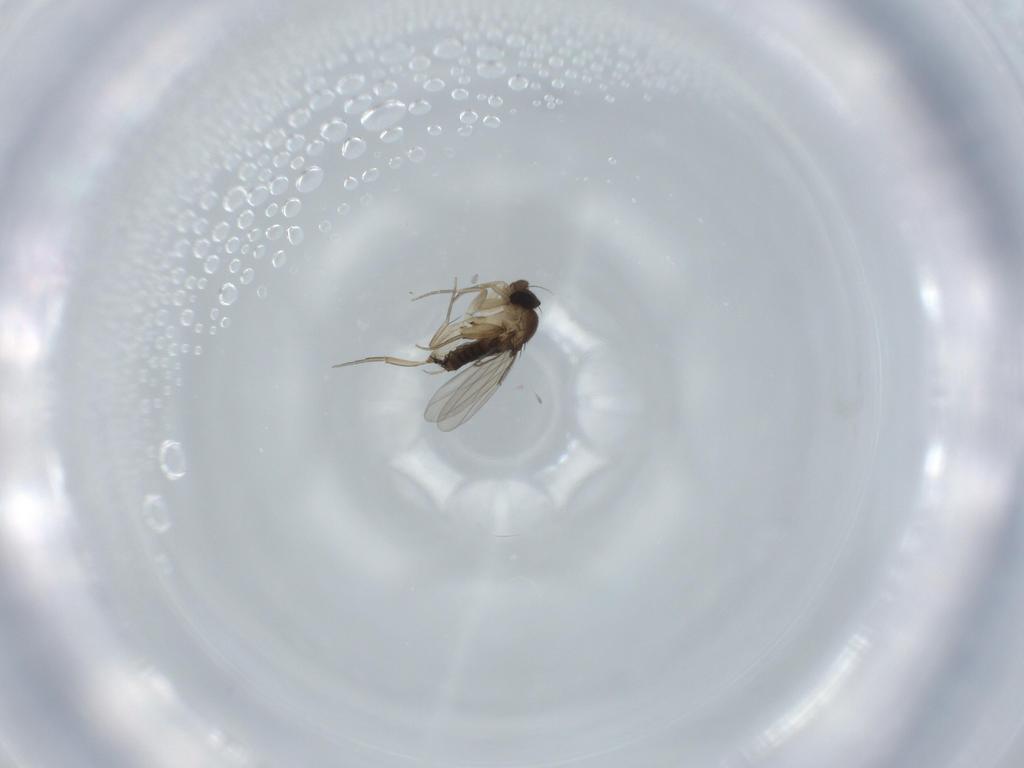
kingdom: Animalia
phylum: Arthropoda
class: Insecta
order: Diptera
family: Phoridae
